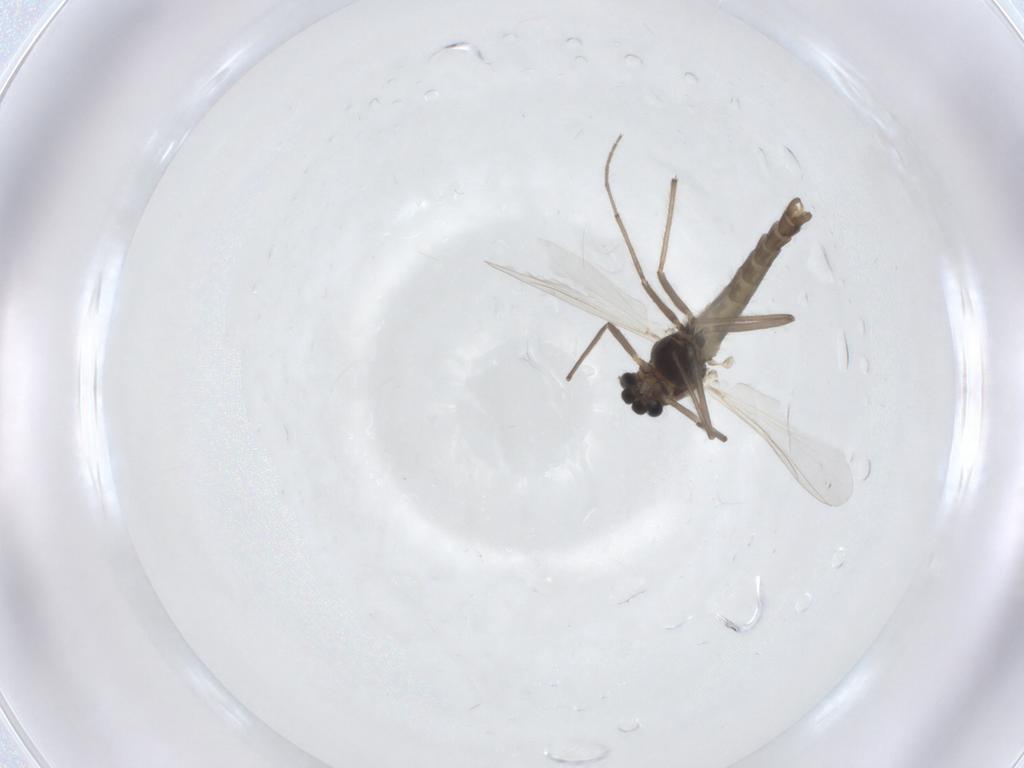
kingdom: Animalia
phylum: Arthropoda
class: Insecta
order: Diptera
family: Chironomidae
